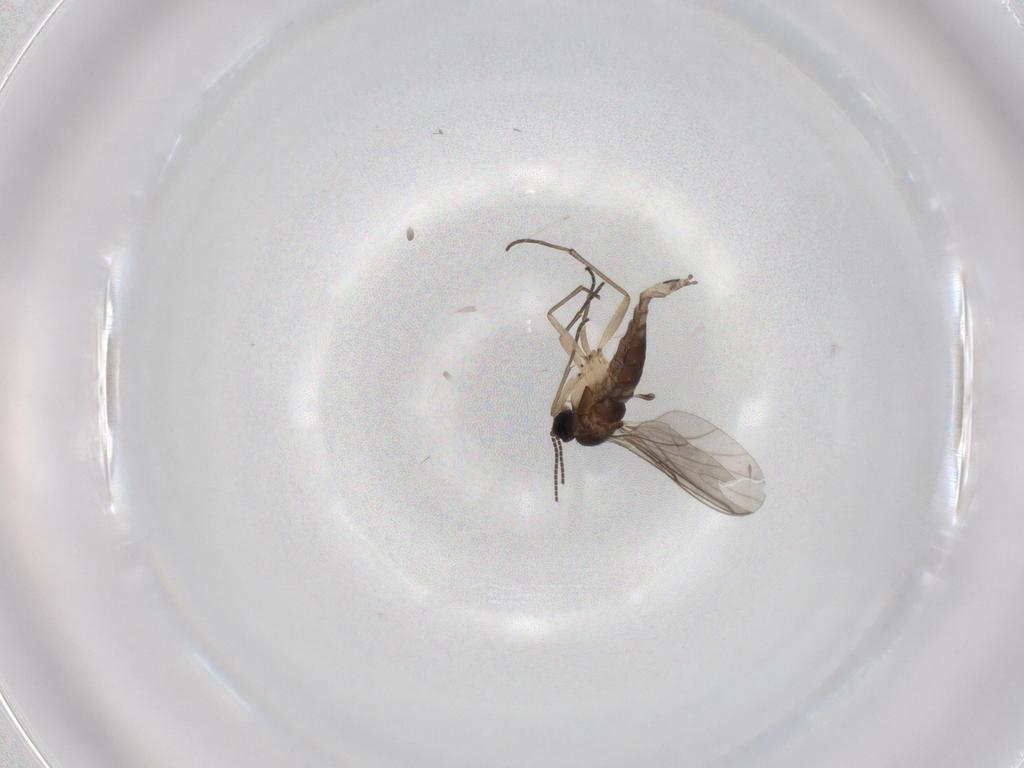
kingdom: Animalia
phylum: Arthropoda
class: Insecta
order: Diptera
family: Sciaridae
